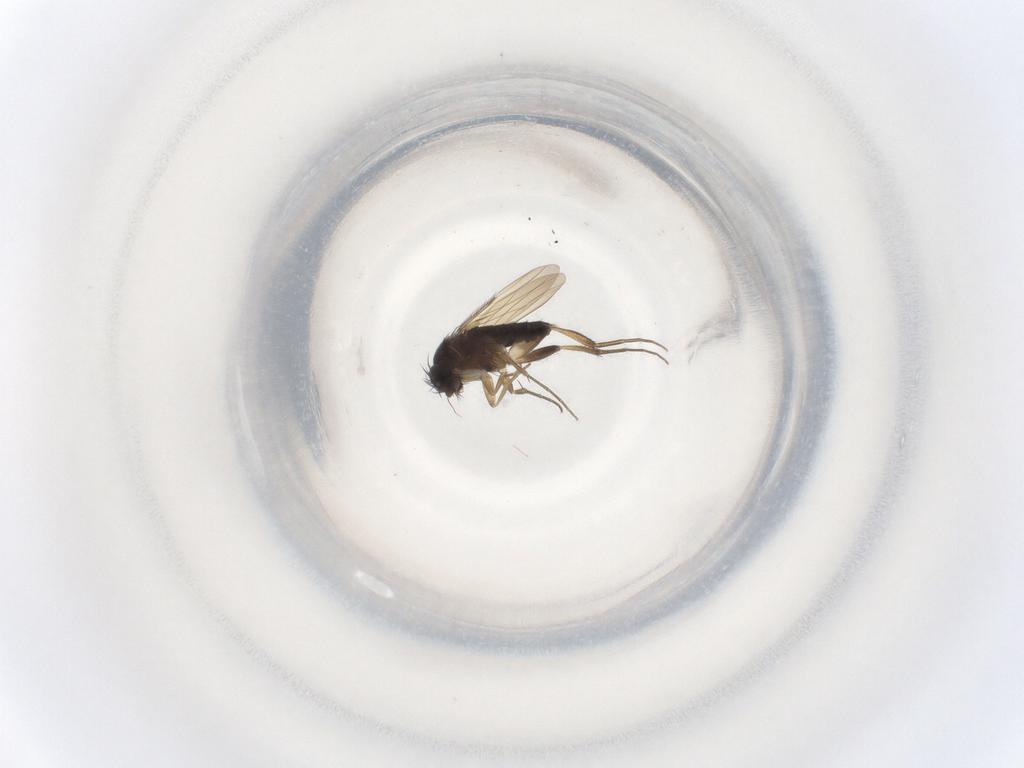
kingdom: Animalia
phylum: Arthropoda
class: Insecta
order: Diptera
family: Phoridae
